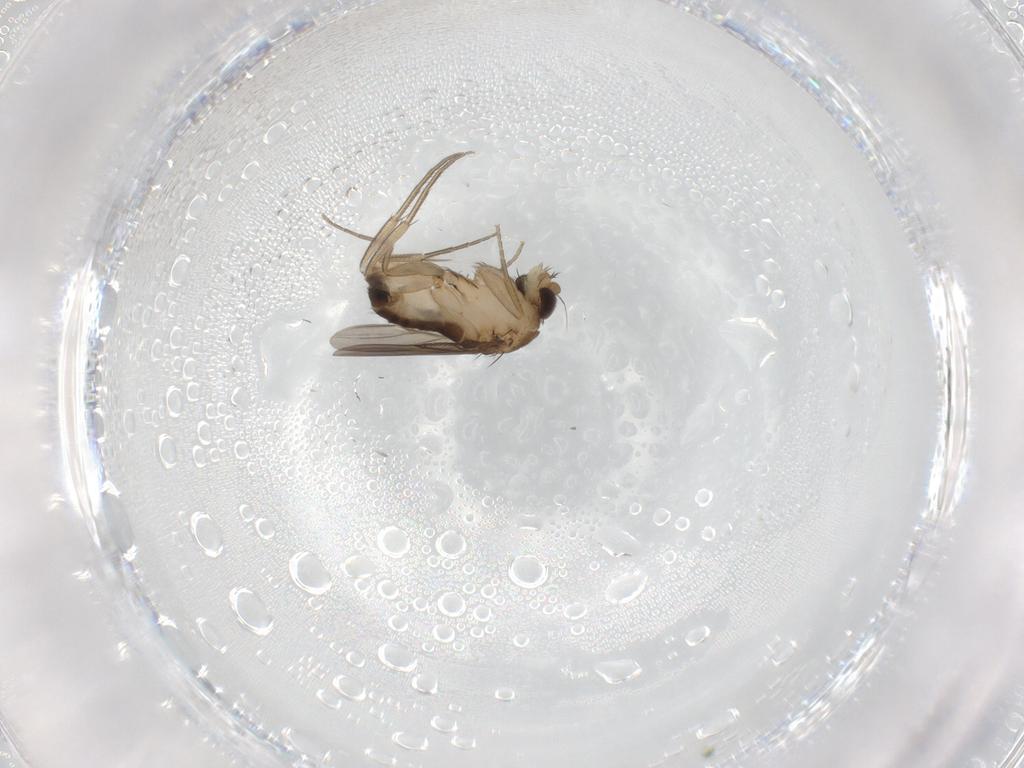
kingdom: Animalia
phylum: Arthropoda
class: Insecta
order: Diptera
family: Phoridae
